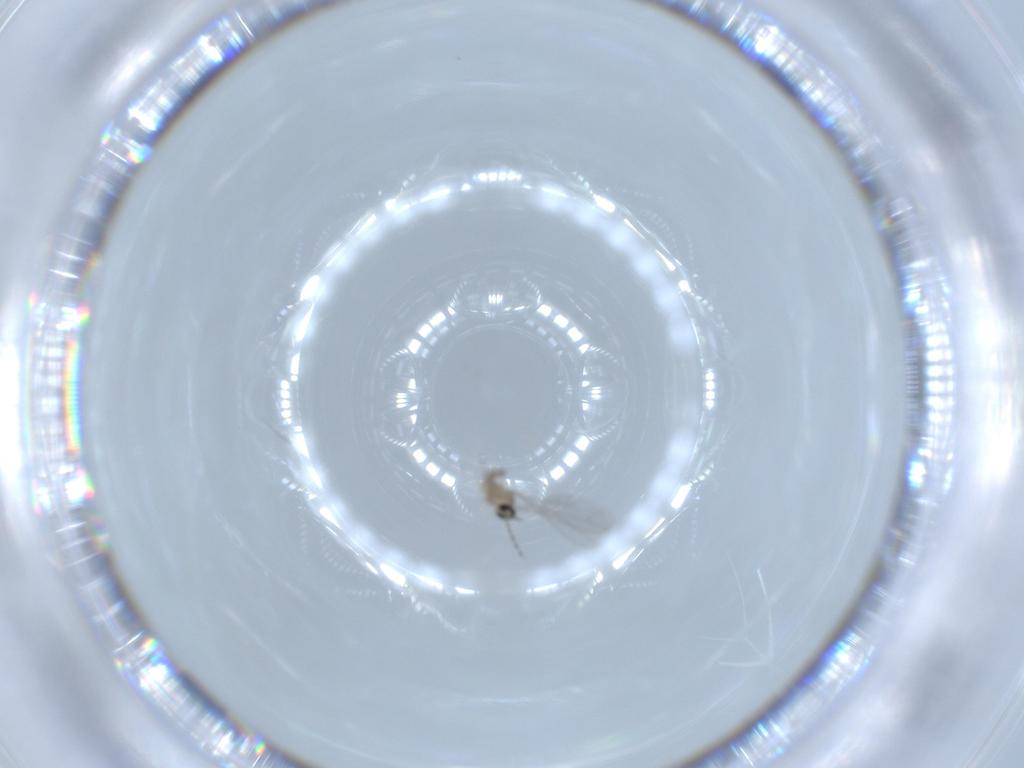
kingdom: Animalia
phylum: Arthropoda
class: Insecta
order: Diptera
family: Cecidomyiidae
